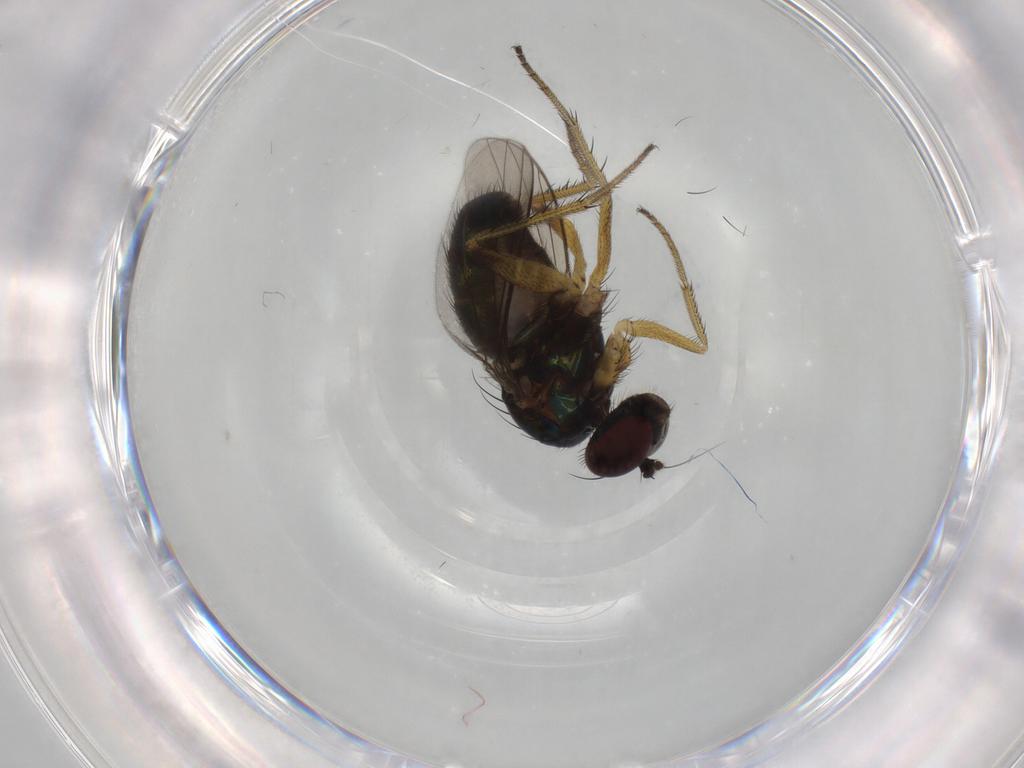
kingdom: Animalia
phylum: Arthropoda
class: Insecta
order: Diptera
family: Dolichopodidae
